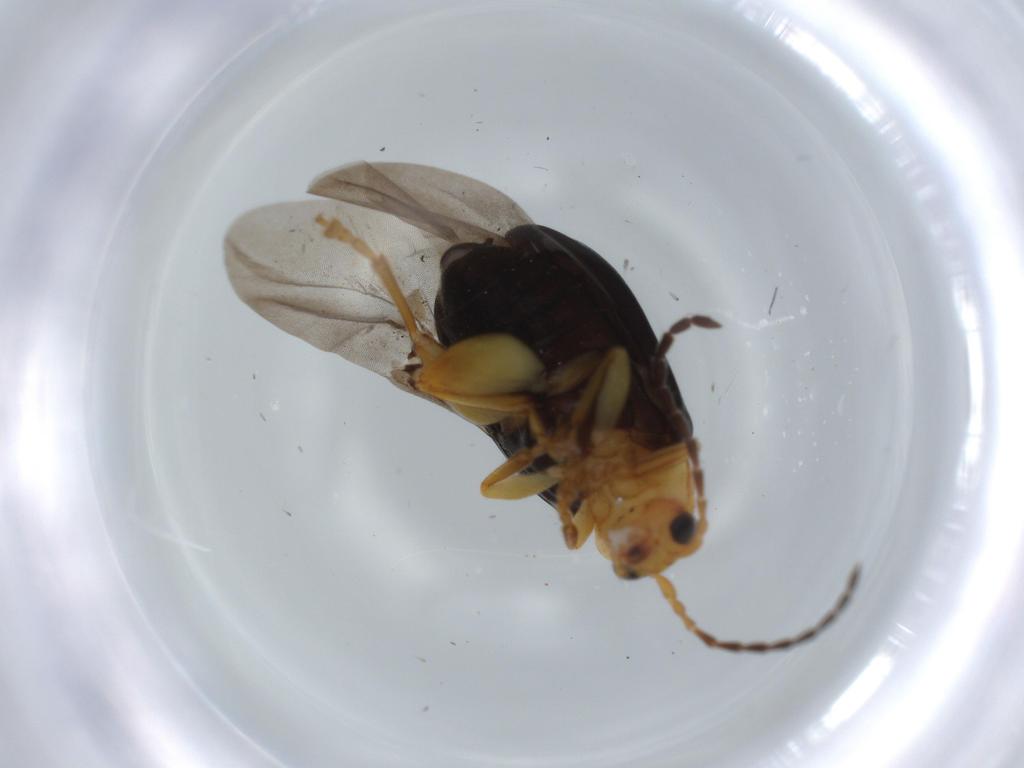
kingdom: Animalia
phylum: Arthropoda
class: Insecta
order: Coleoptera
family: Chrysomelidae
